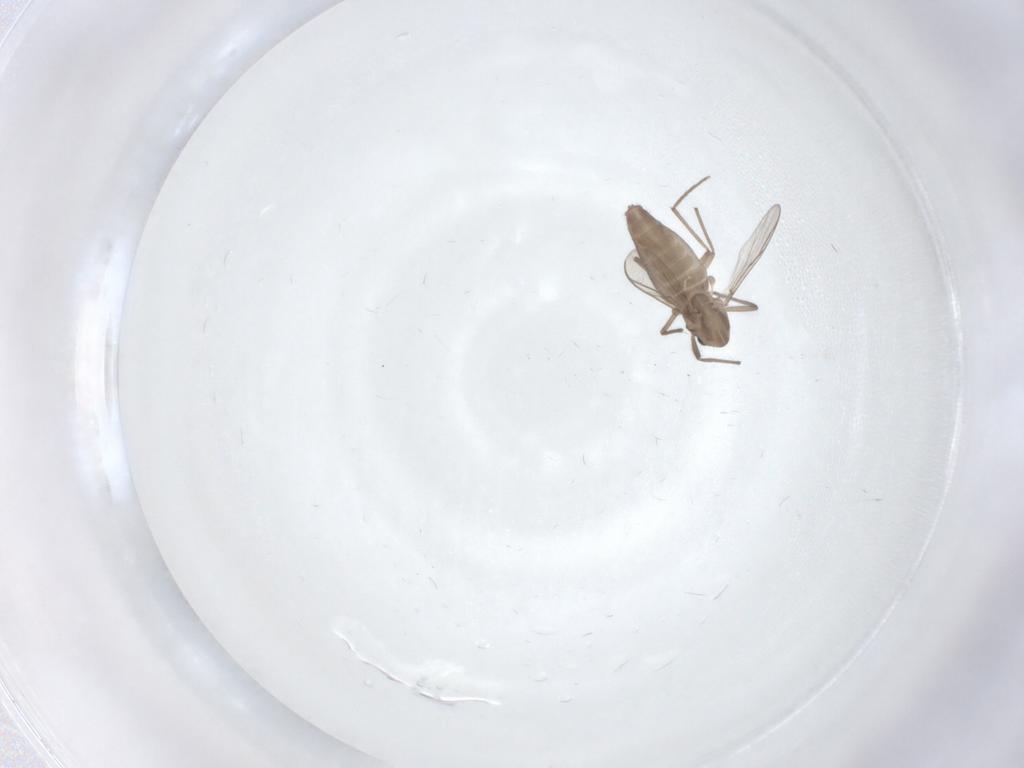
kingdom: Animalia
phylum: Arthropoda
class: Insecta
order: Diptera
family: Chironomidae
